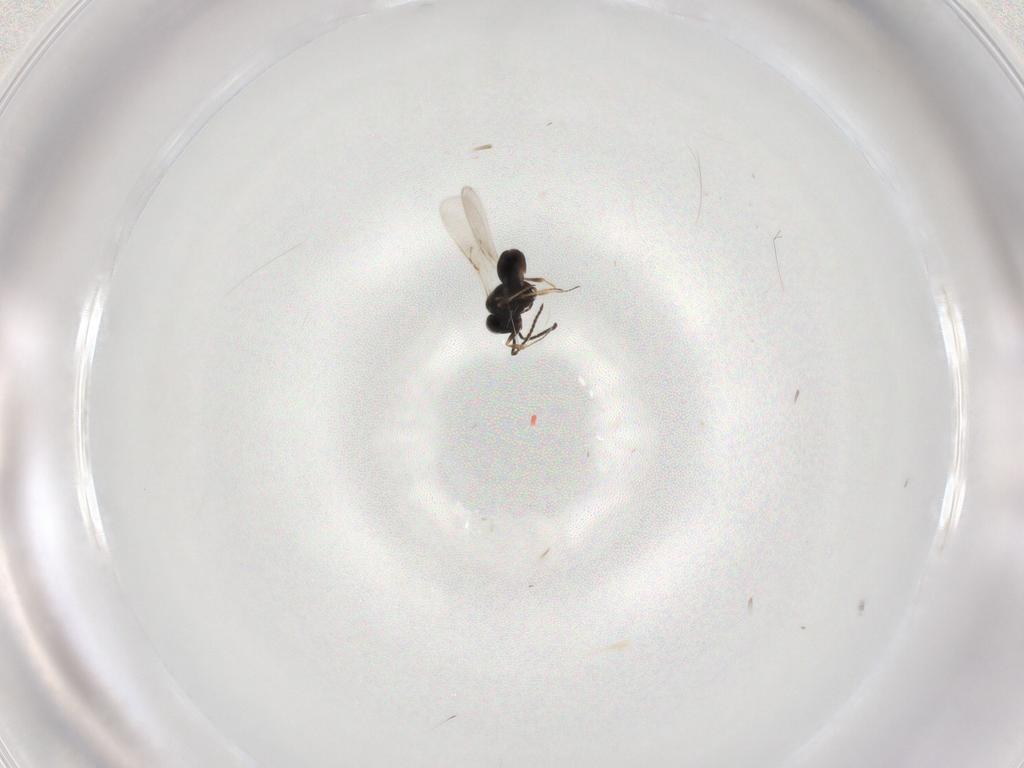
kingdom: Animalia
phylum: Arthropoda
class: Insecta
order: Hymenoptera
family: Scelionidae
